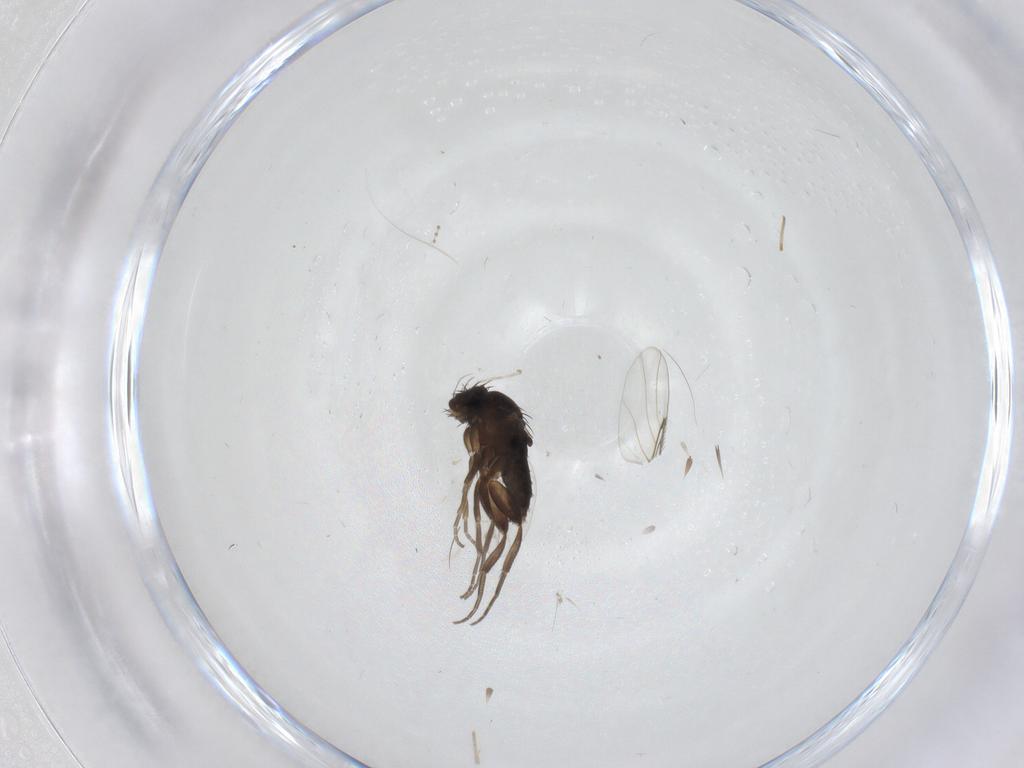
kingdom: Animalia
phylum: Arthropoda
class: Insecta
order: Diptera
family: Phoridae
